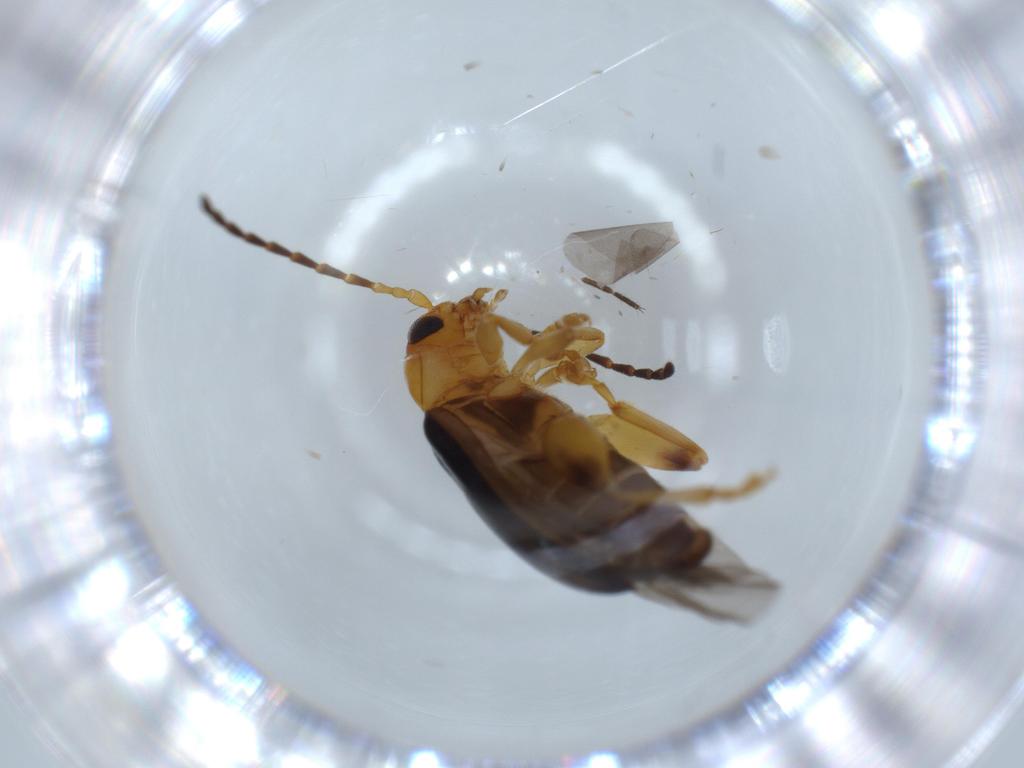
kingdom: Animalia
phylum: Arthropoda
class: Insecta
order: Coleoptera
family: Chrysomelidae
